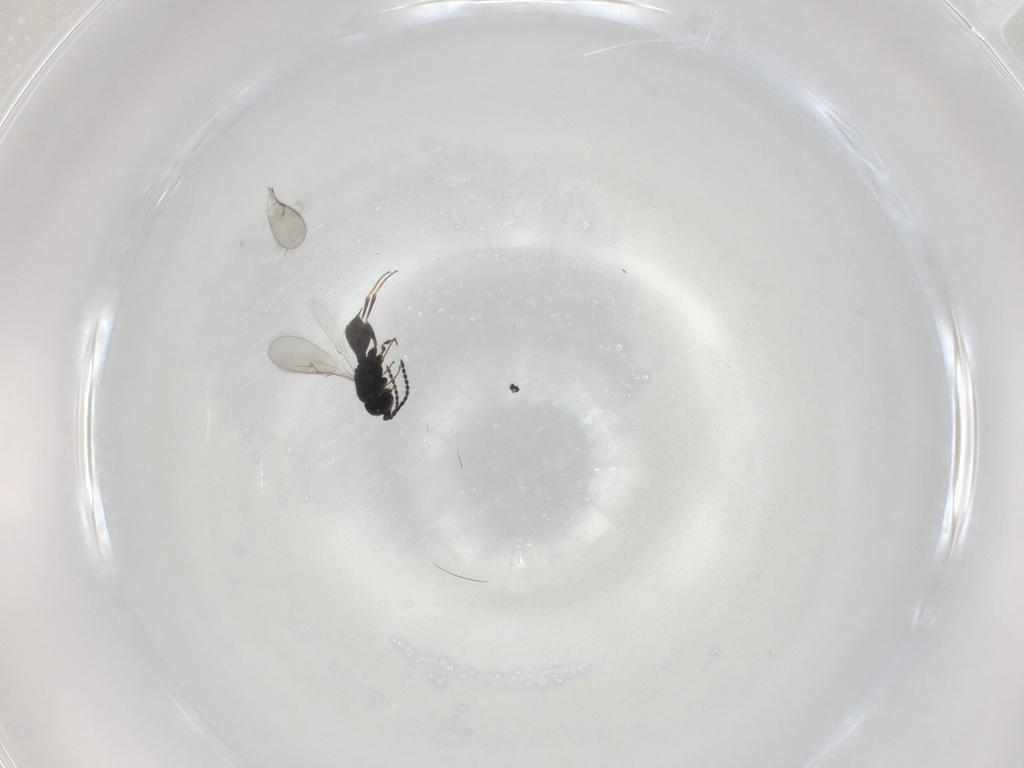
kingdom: Animalia
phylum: Arthropoda
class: Insecta
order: Hymenoptera
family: Scelionidae
